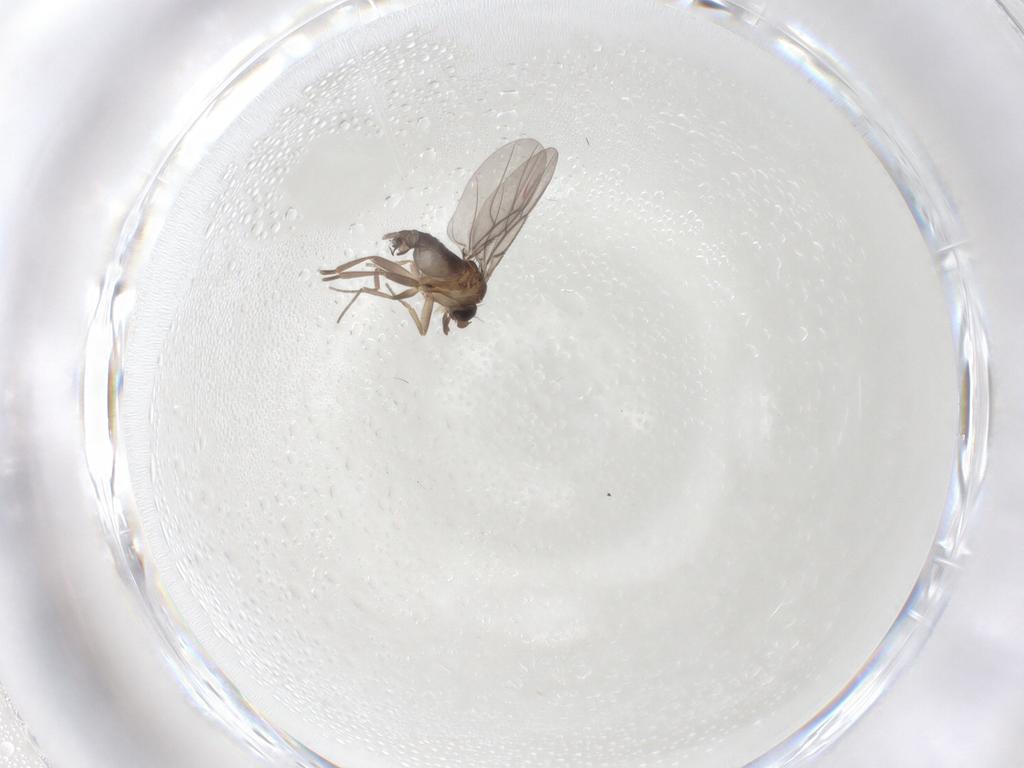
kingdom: Animalia
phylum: Arthropoda
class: Insecta
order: Diptera
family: Phoridae
